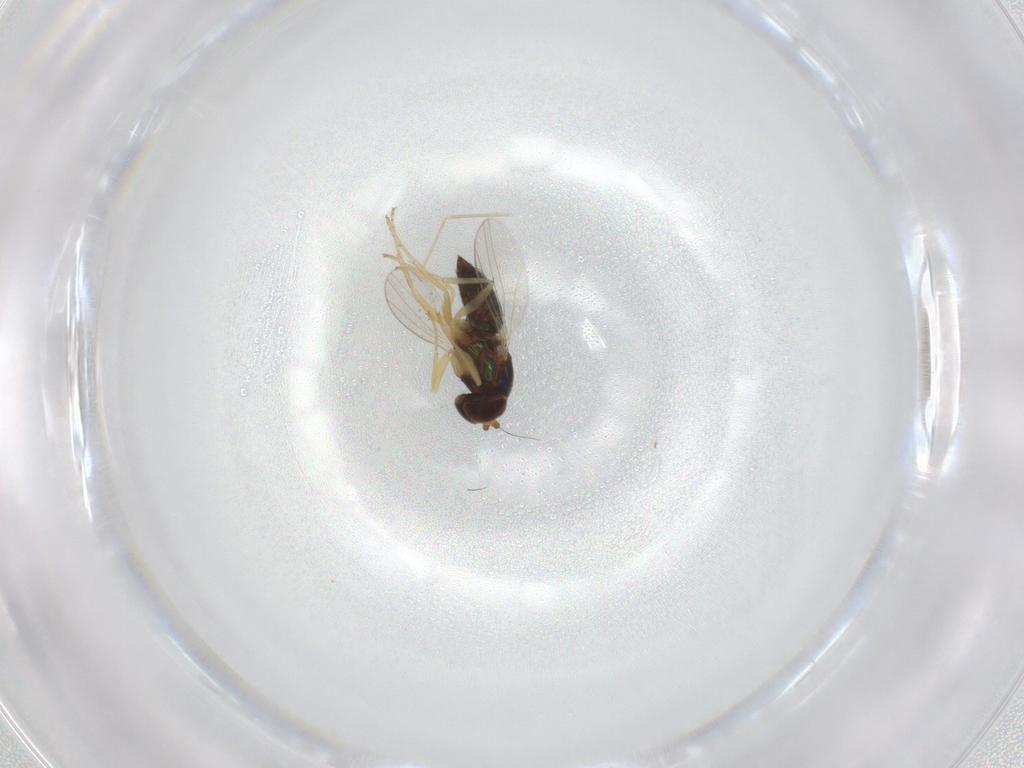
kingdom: Animalia
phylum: Arthropoda
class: Insecta
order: Diptera
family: Dolichopodidae
